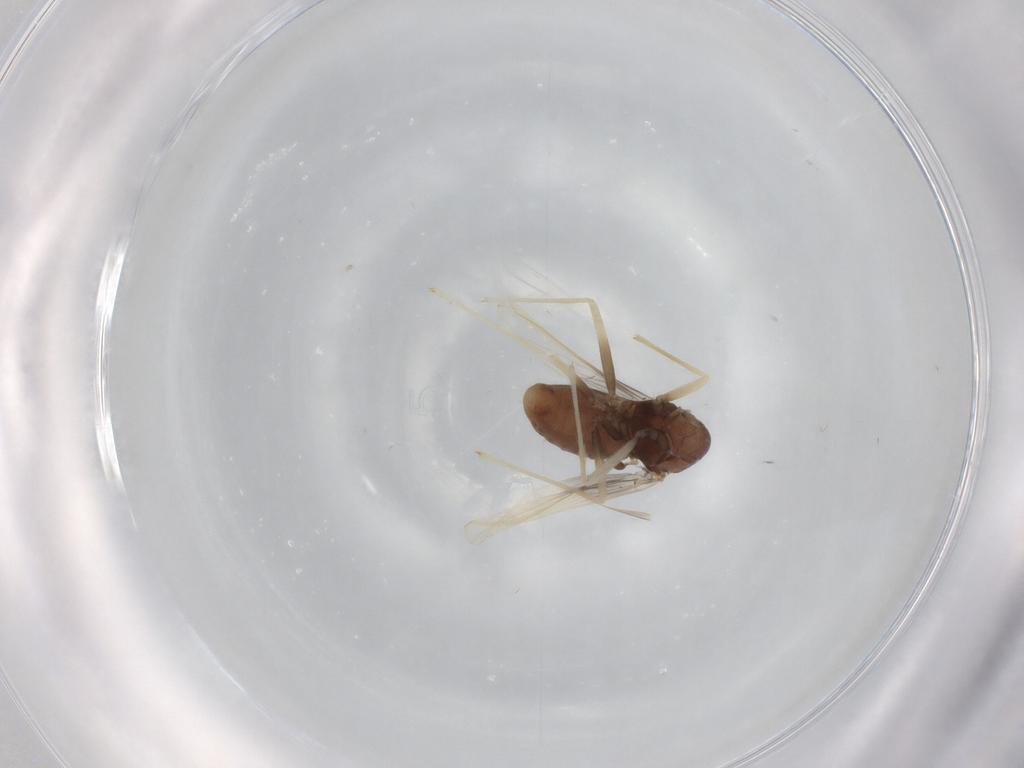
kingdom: Animalia
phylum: Arthropoda
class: Insecta
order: Diptera
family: Chironomidae
